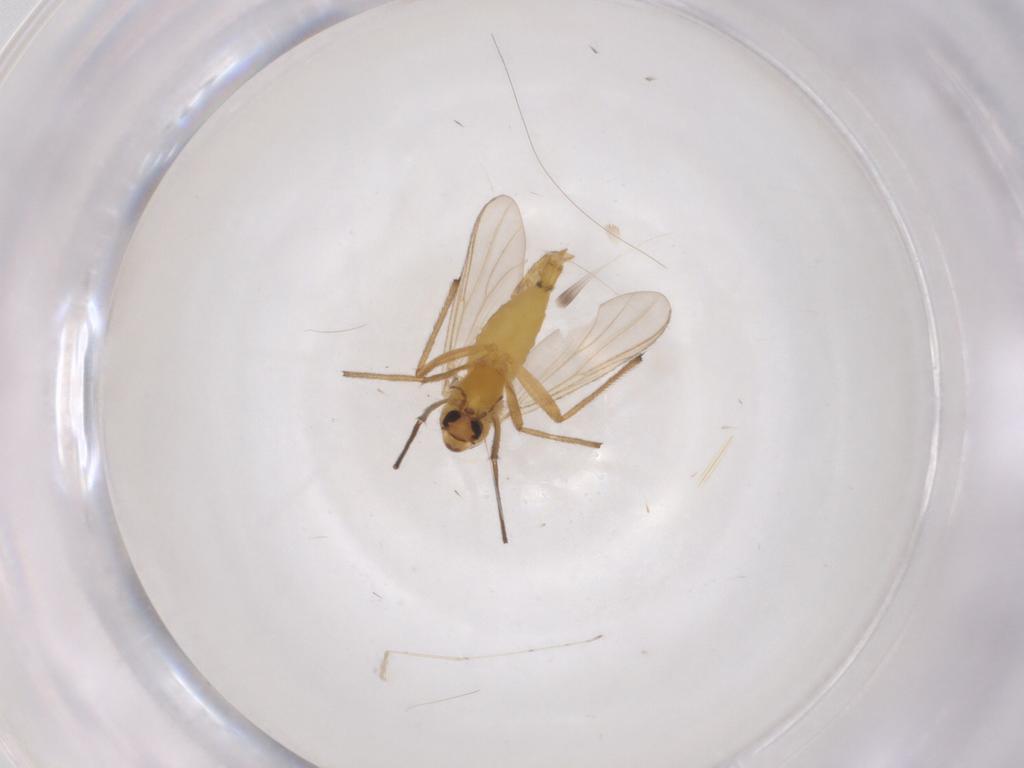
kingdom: Animalia
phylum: Arthropoda
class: Insecta
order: Diptera
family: Chironomidae
